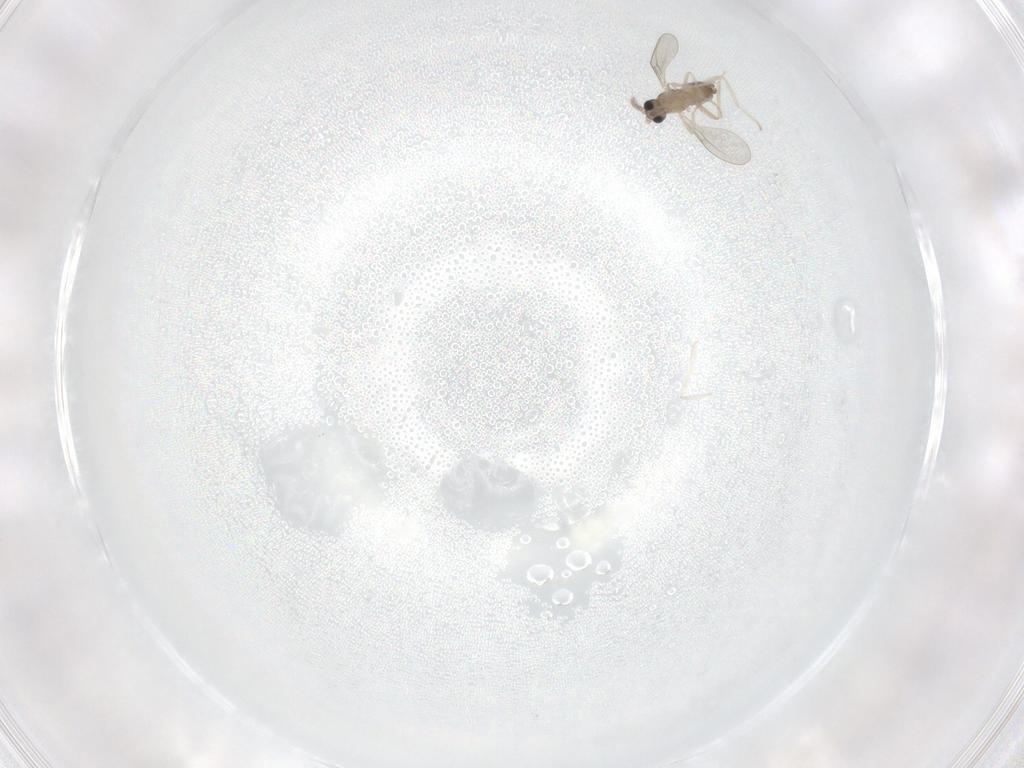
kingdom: Animalia
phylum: Arthropoda
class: Insecta
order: Diptera
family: Cecidomyiidae
